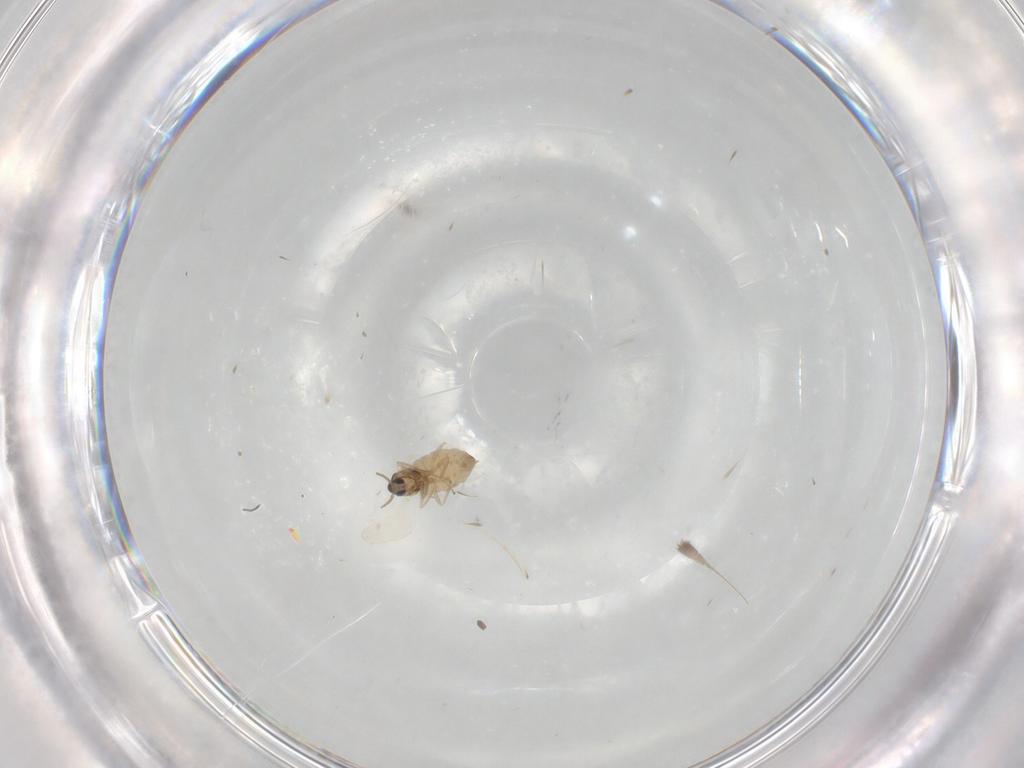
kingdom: Animalia
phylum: Arthropoda
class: Insecta
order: Diptera
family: Cecidomyiidae
